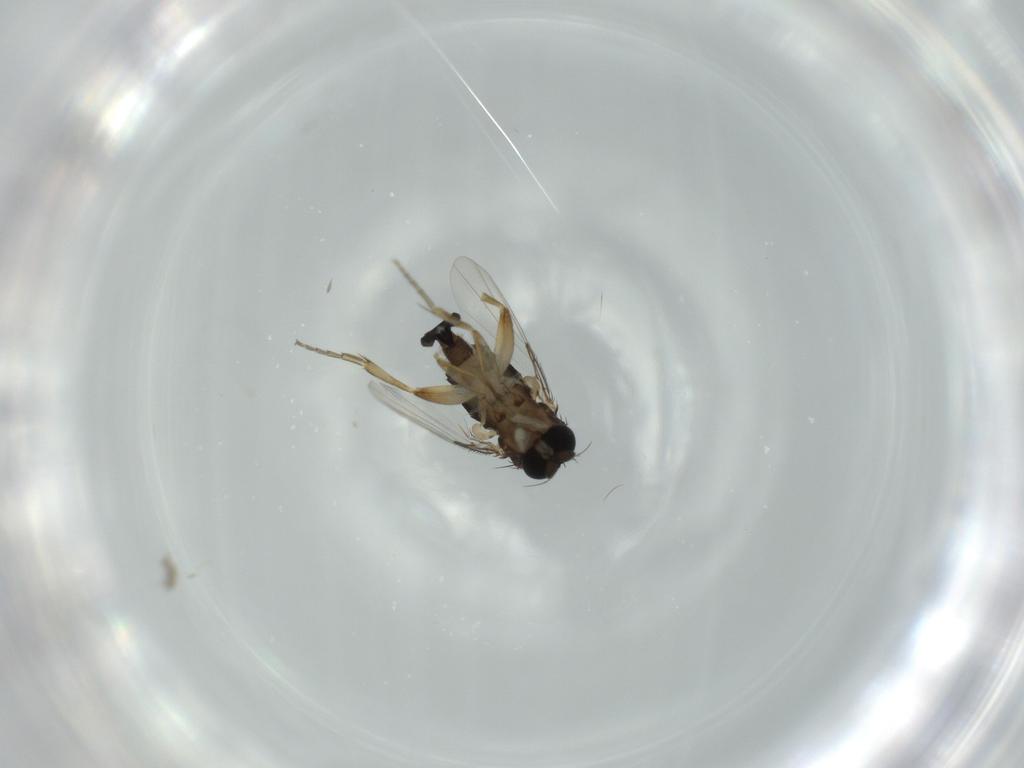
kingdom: Animalia
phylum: Arthropoda
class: Insecta
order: Diptera
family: Phoridae
